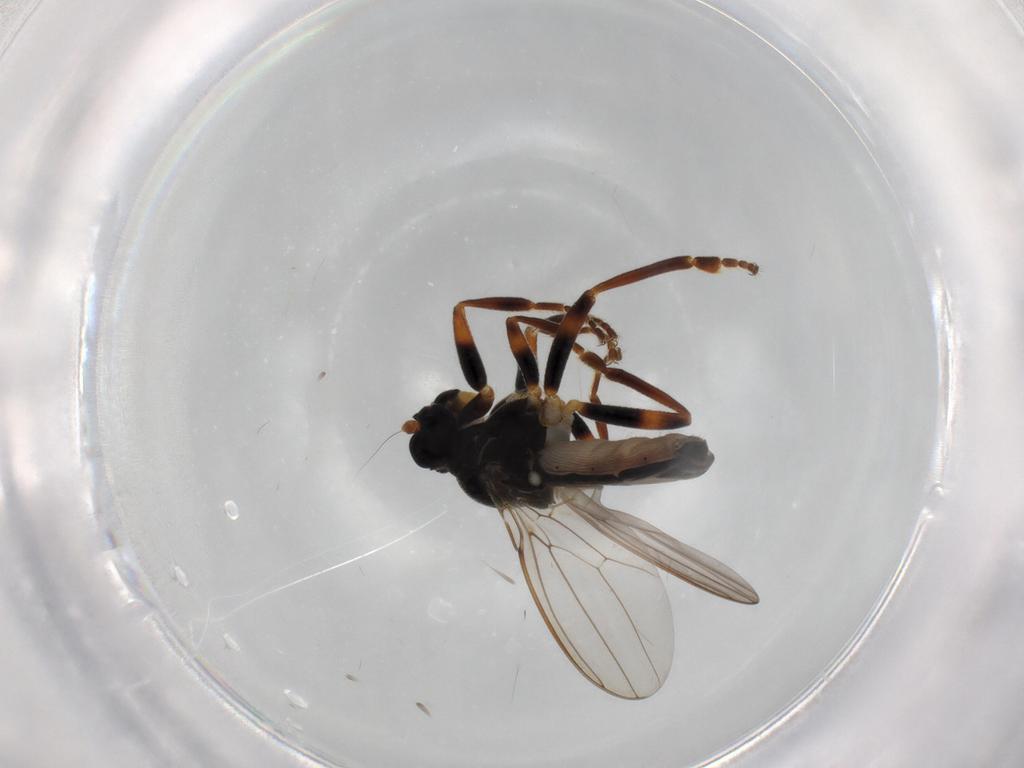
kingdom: Animalia
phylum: Arthropoda
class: Insecta
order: Diptera
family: Sphaeroceridae
